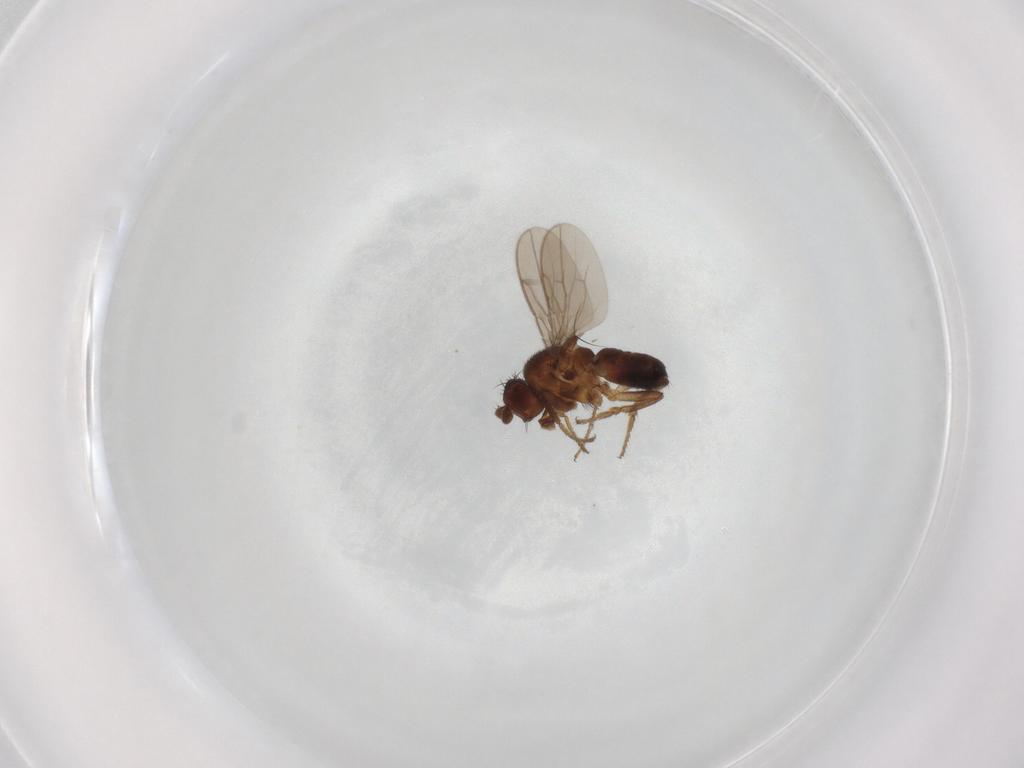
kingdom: Animalia
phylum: Arthropoda
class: Insecta
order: Diptera
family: Sphaeroceridae
